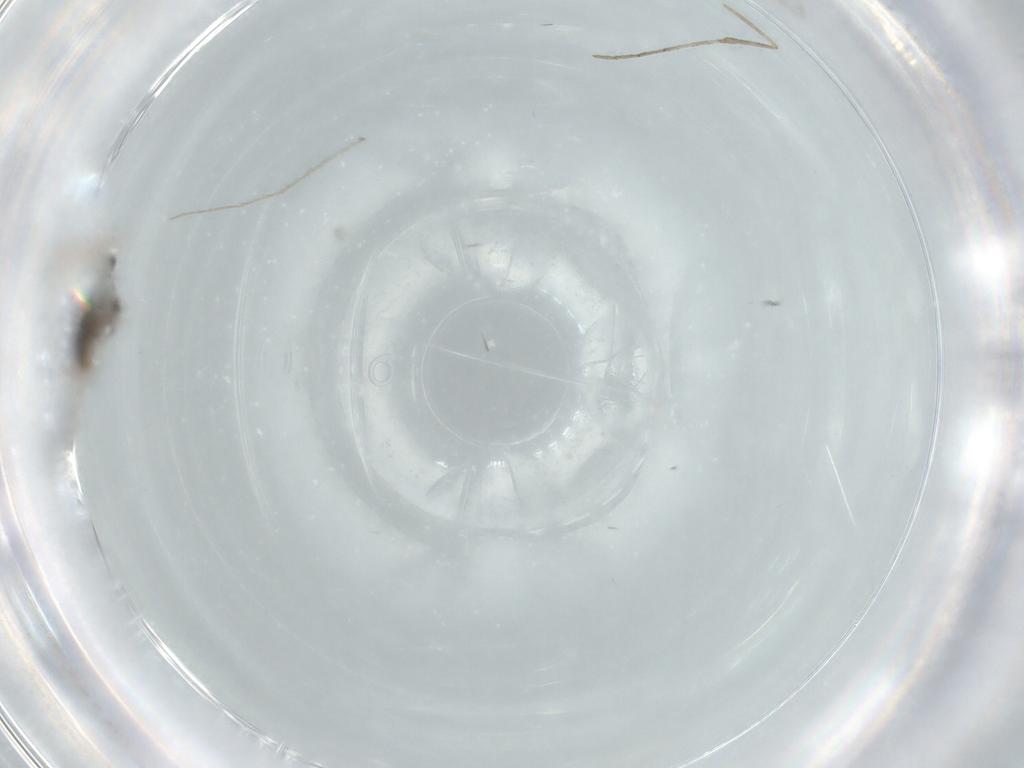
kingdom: Animalia
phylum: Arthropoda
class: Insecta
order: Diptera
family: Cecidomyiidae
